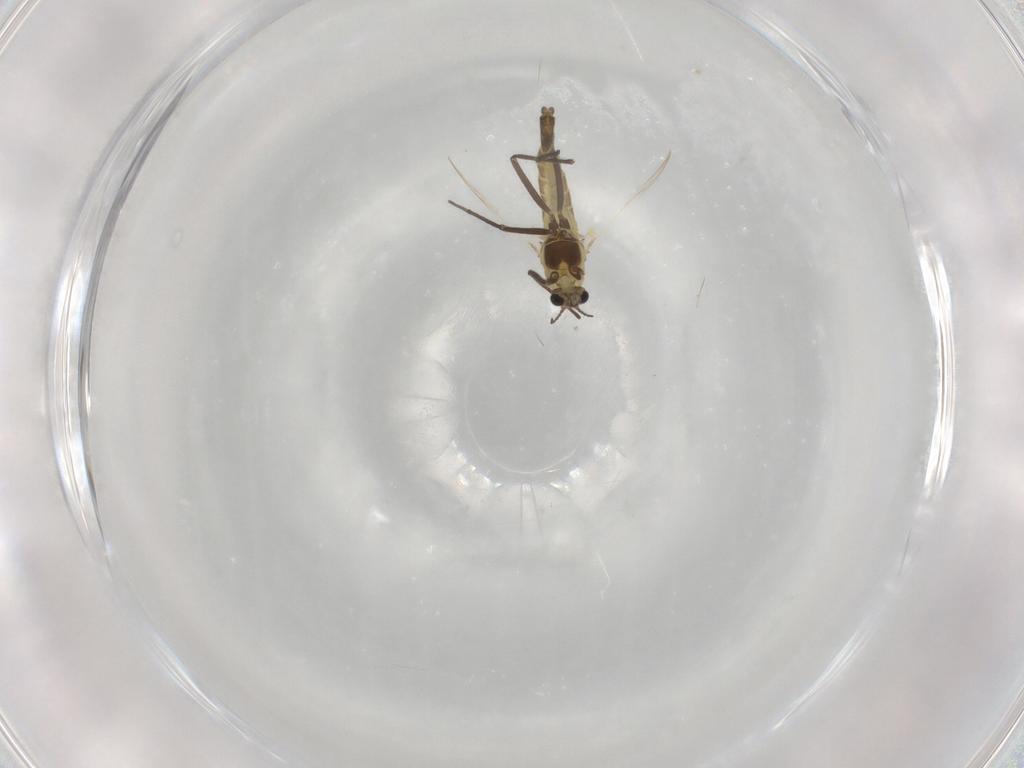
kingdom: Animalia
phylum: Arthropoda
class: Insecta
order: Diptera
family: Chironomidae
